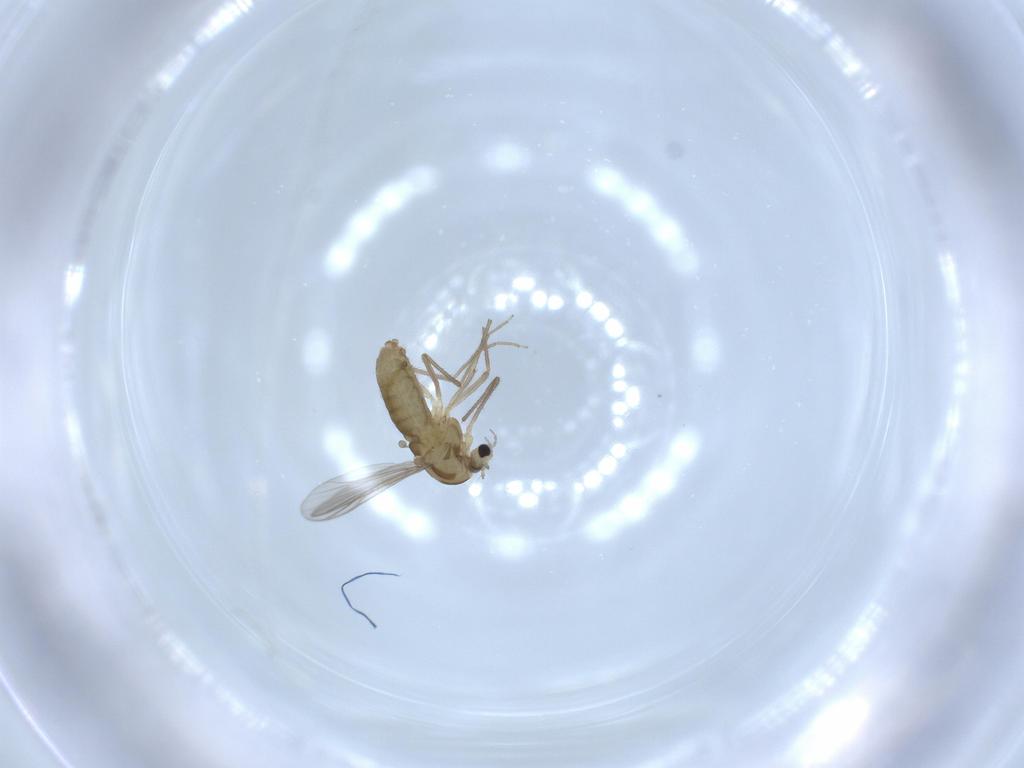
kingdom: Animalia
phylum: Arthropoda
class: Insecta
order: Diptera
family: Chironomidae
